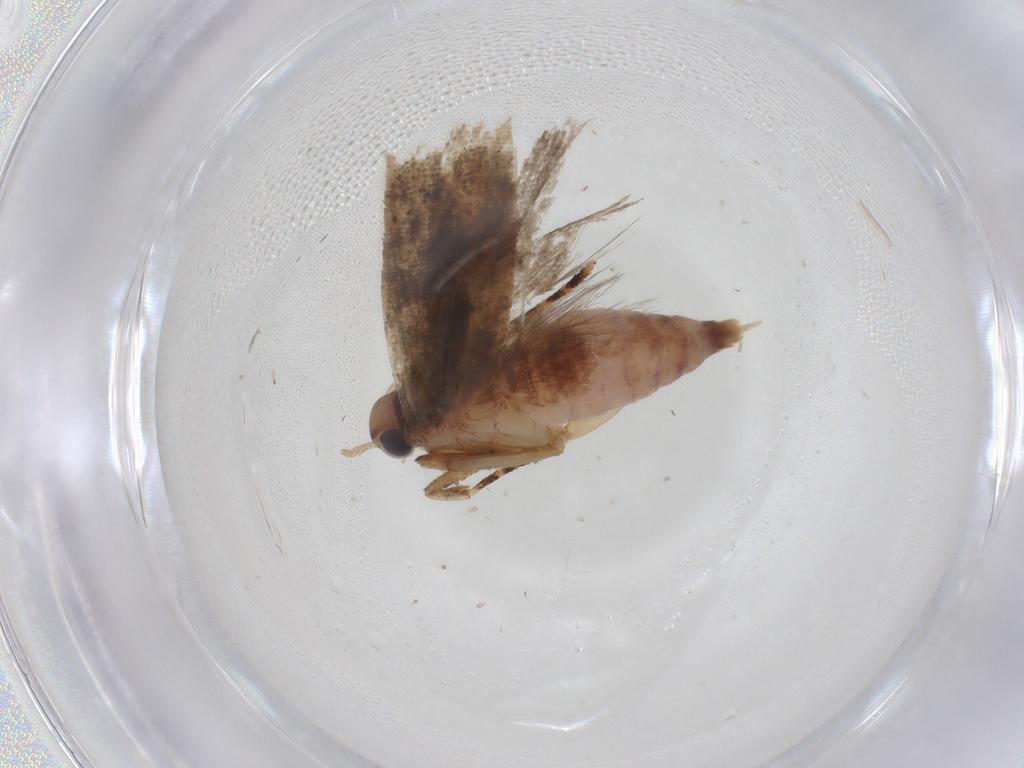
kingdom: Animalia
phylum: Arthropoda
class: Insecta
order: Lepidoptera
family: Gelechiidae
